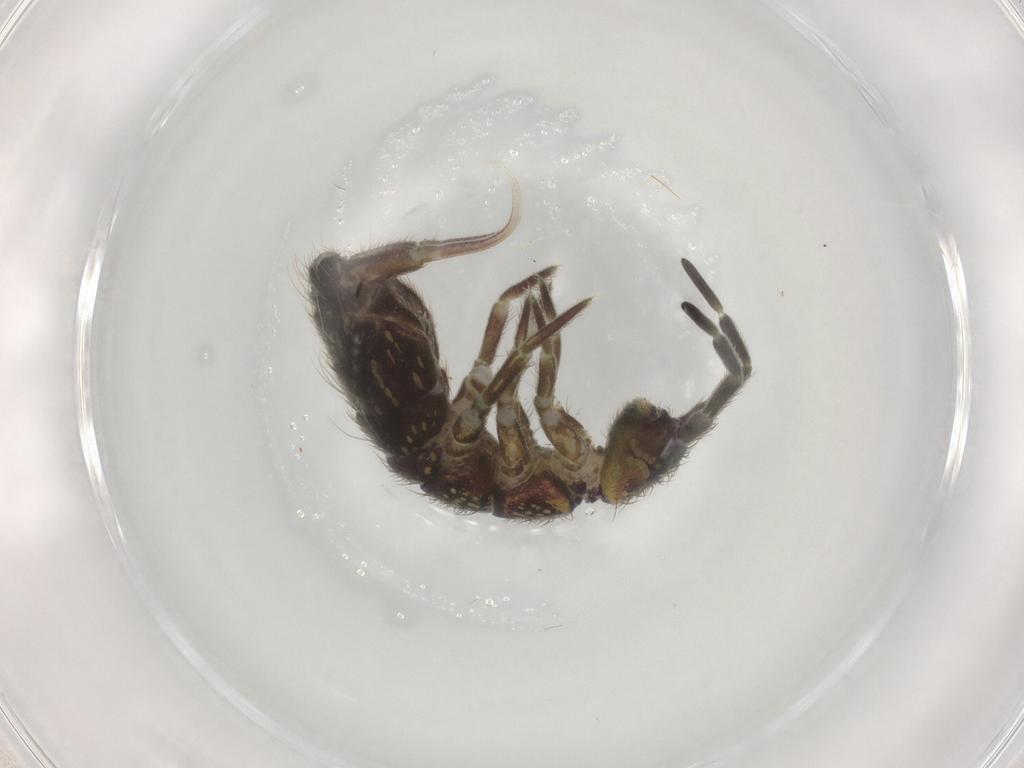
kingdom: Animalia
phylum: Arthropoda
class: Collembola
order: Entomobryomorpha
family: Isotomidae
